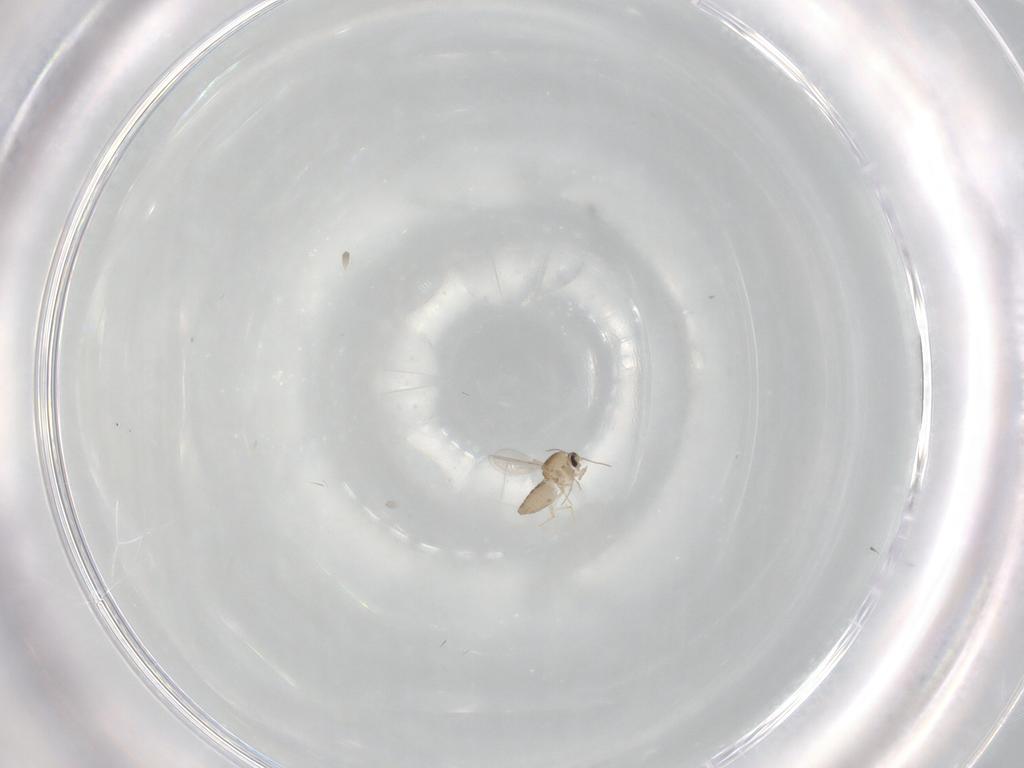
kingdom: Animalia
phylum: Arthropoda
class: Insecta
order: Diptera
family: Ceratopogonidae
